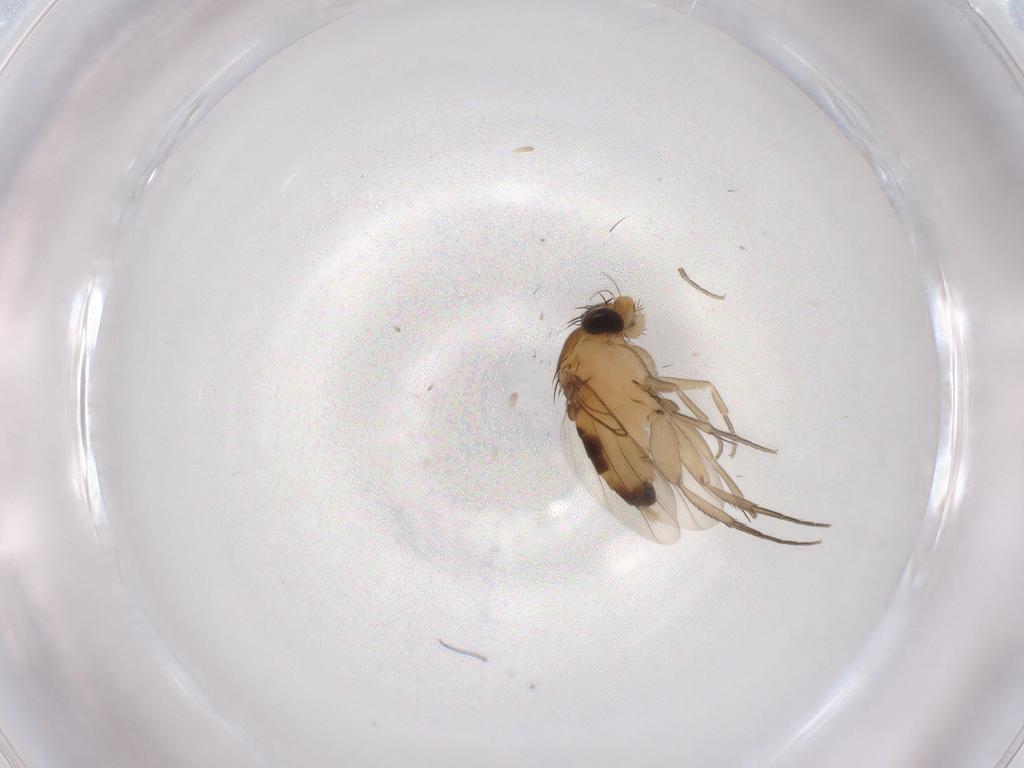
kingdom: Animalia
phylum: Arthropoda
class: Insecta
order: Diptera
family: Phoridae
